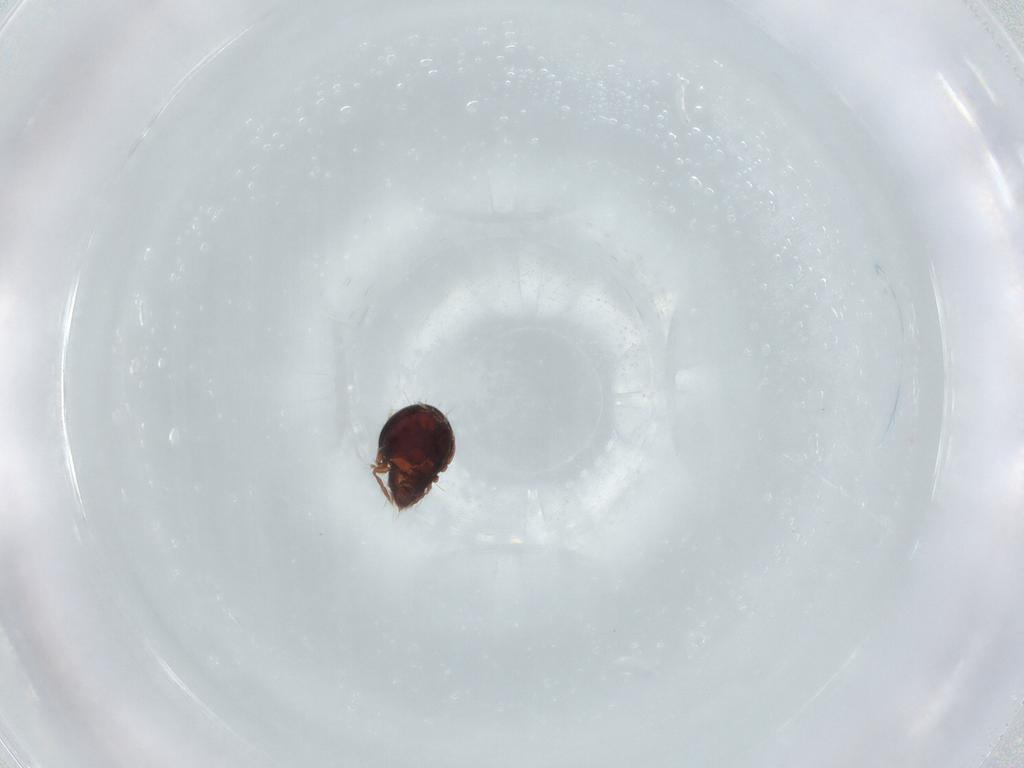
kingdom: Animalia
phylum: Arthropoda
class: Arachnida
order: Sarcoptiformes
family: Ceratoppiidae
